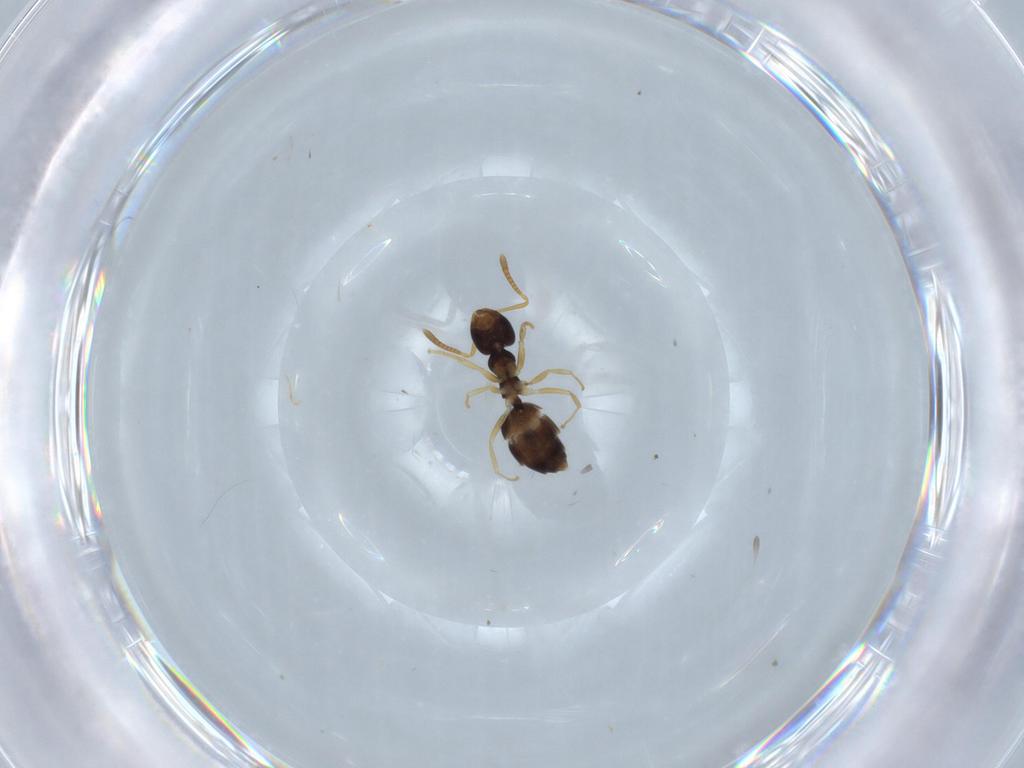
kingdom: Animalia
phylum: Arthropoda
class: Insecta
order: Hymenoptera
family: Formicidae
